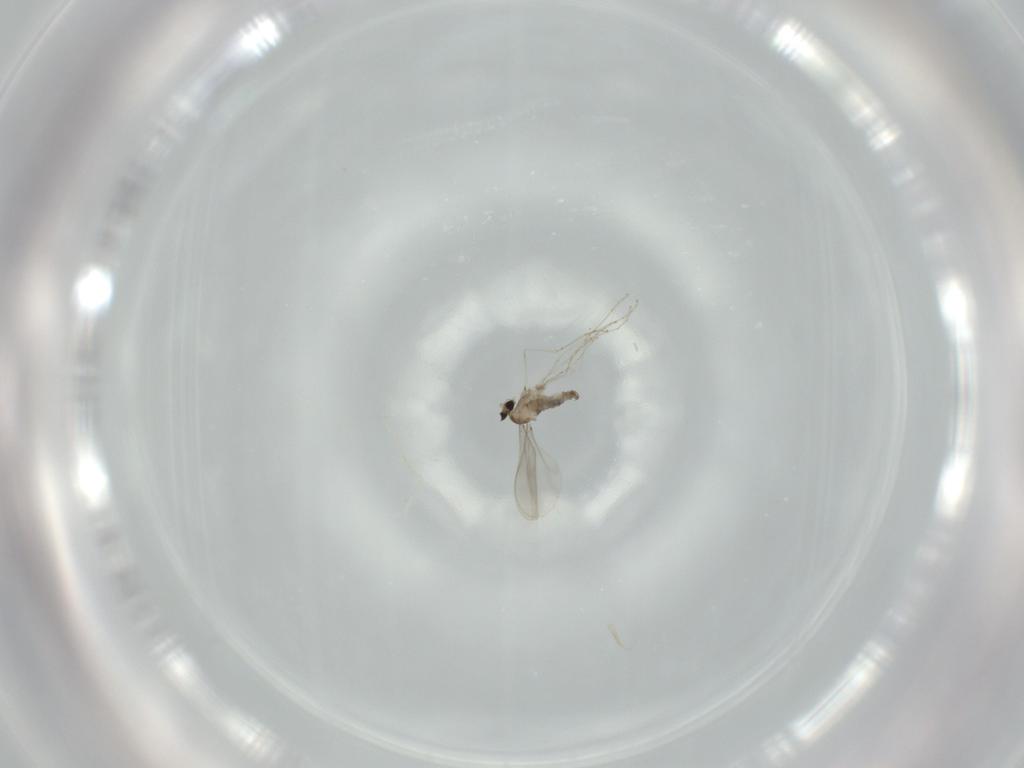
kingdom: Animalia
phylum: Arthropoda
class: Insecta
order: Diptera
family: Cecidomyiidae
